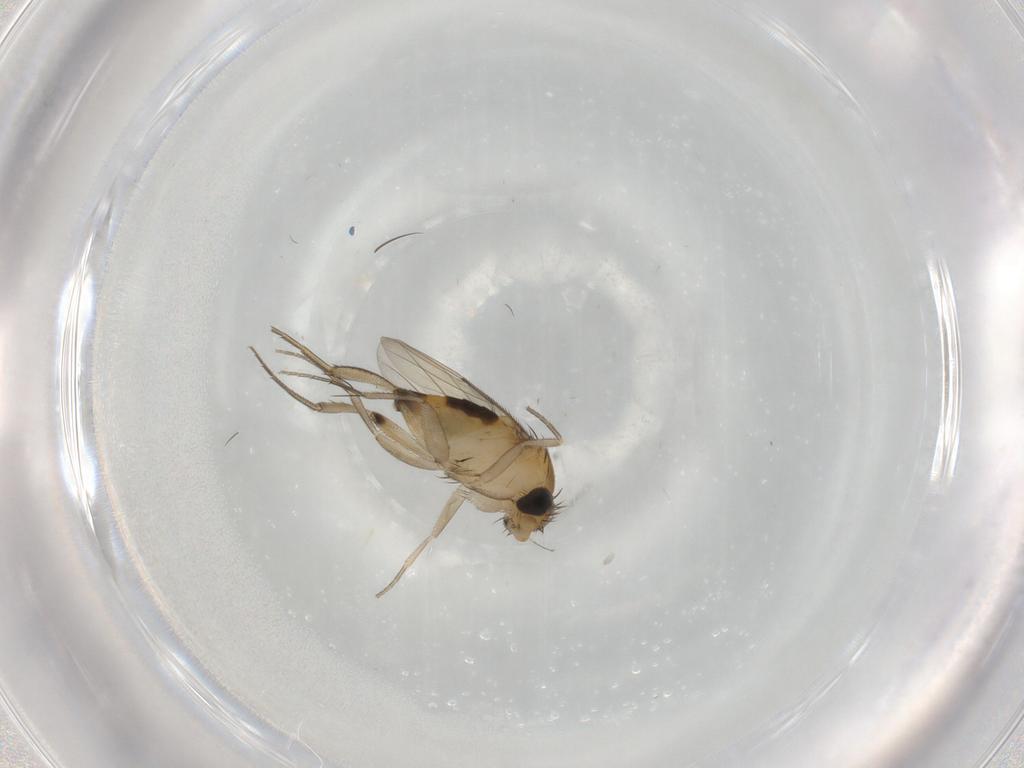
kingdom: Animalia
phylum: Arthropoda
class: Insecta
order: Diptera
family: Phoridae
